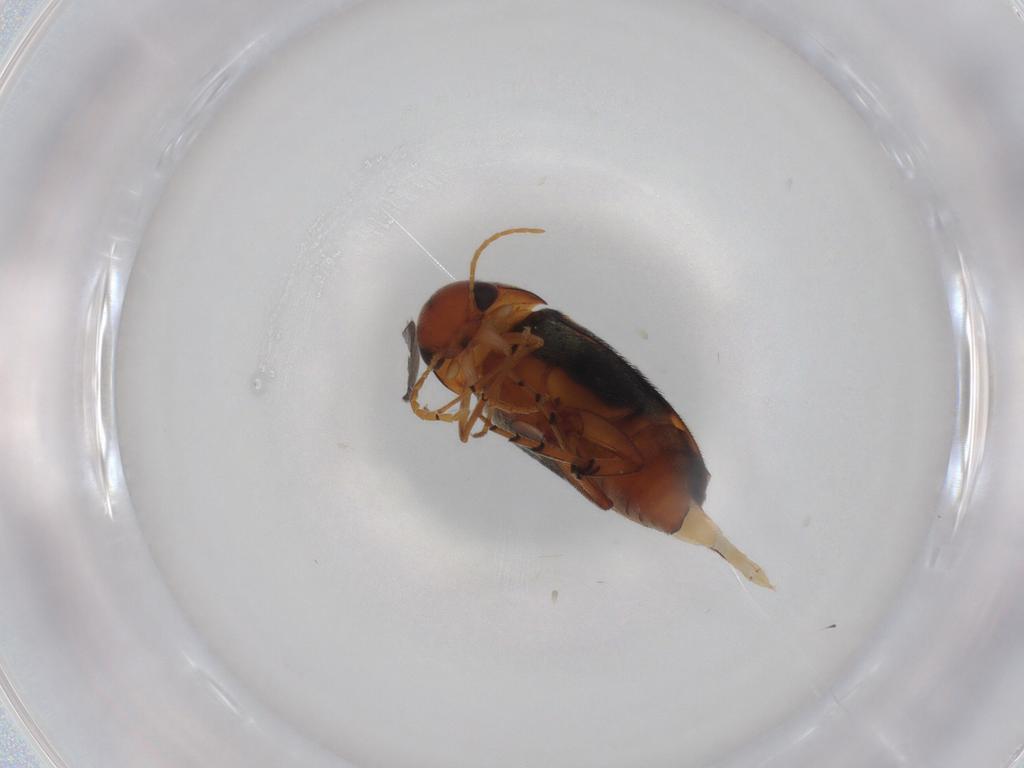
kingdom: Animalia
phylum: Arthropoda
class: Insecta
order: Coleoptera
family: Mordellidae
